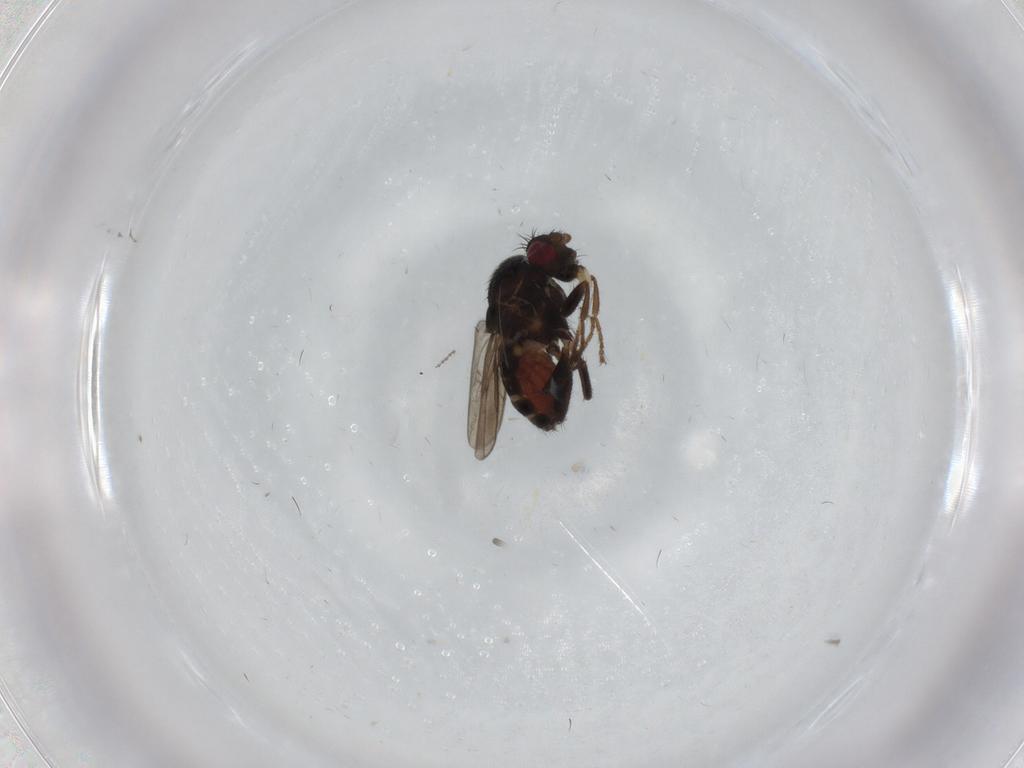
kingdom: Animalia
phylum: Arthropoda
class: Insecta
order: Diptera
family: Sphaeroceridae
